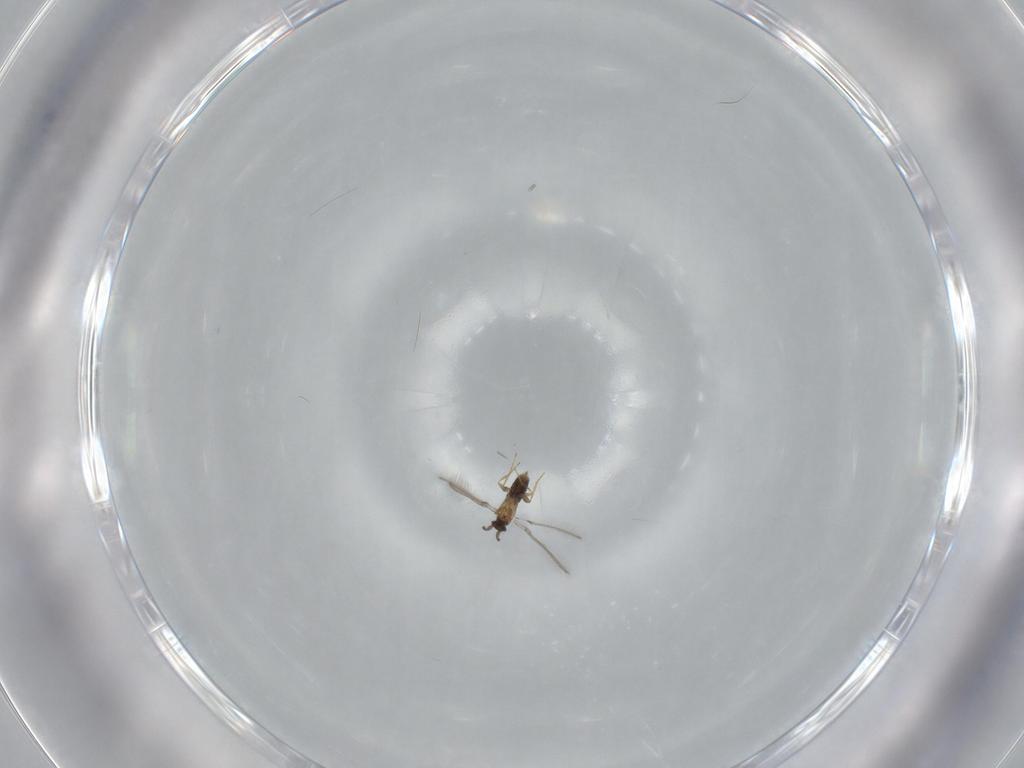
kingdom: Animalia
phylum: Arthropoda
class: Insecta
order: Hymenoptera
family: Mymaridae
